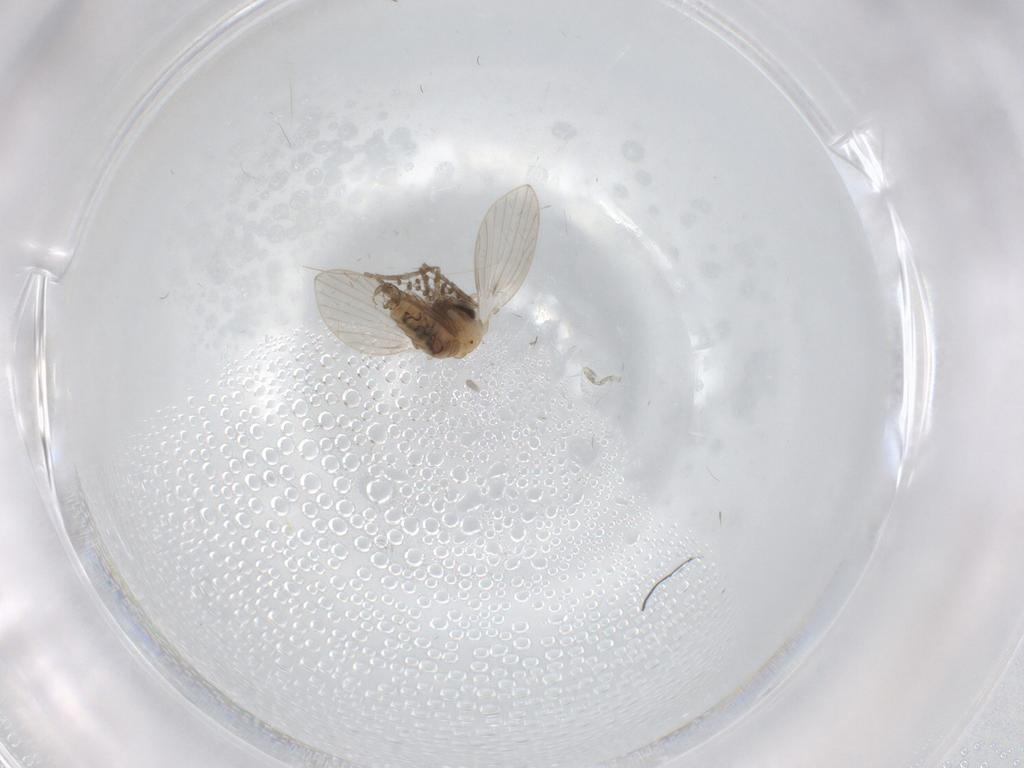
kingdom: Animalia
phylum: Arthropoda
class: Insecta
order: Diptera
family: Psychodidae
